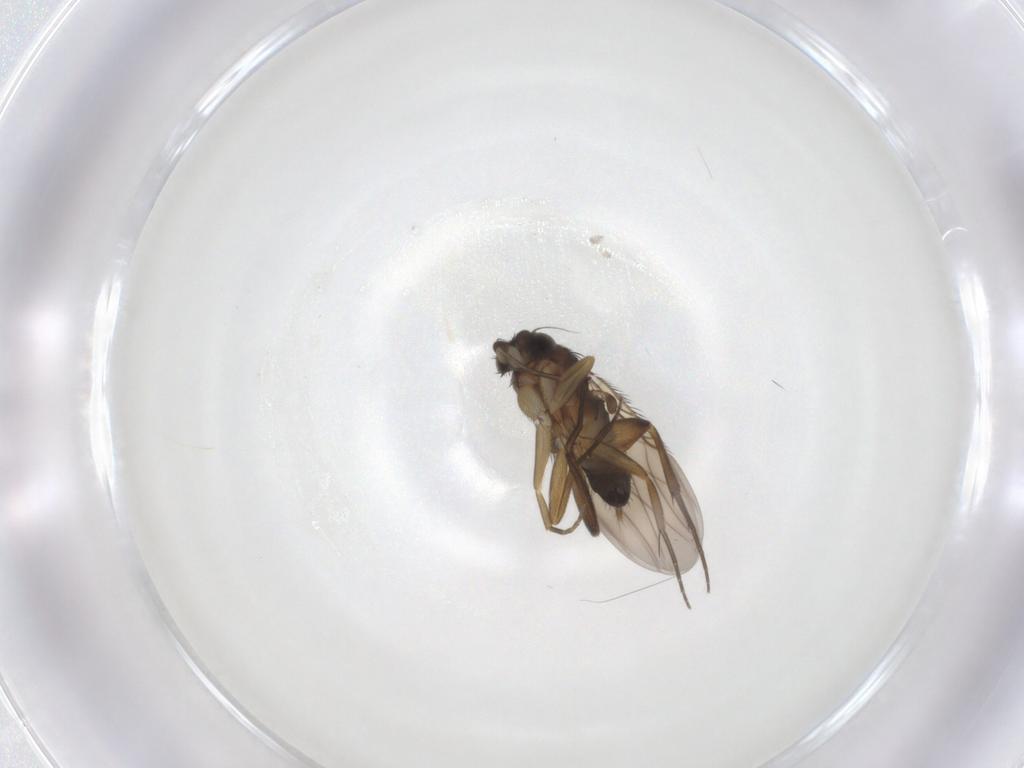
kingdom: Animalia
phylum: Arthropoda
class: Insecta
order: Diptera
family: Phoridae
